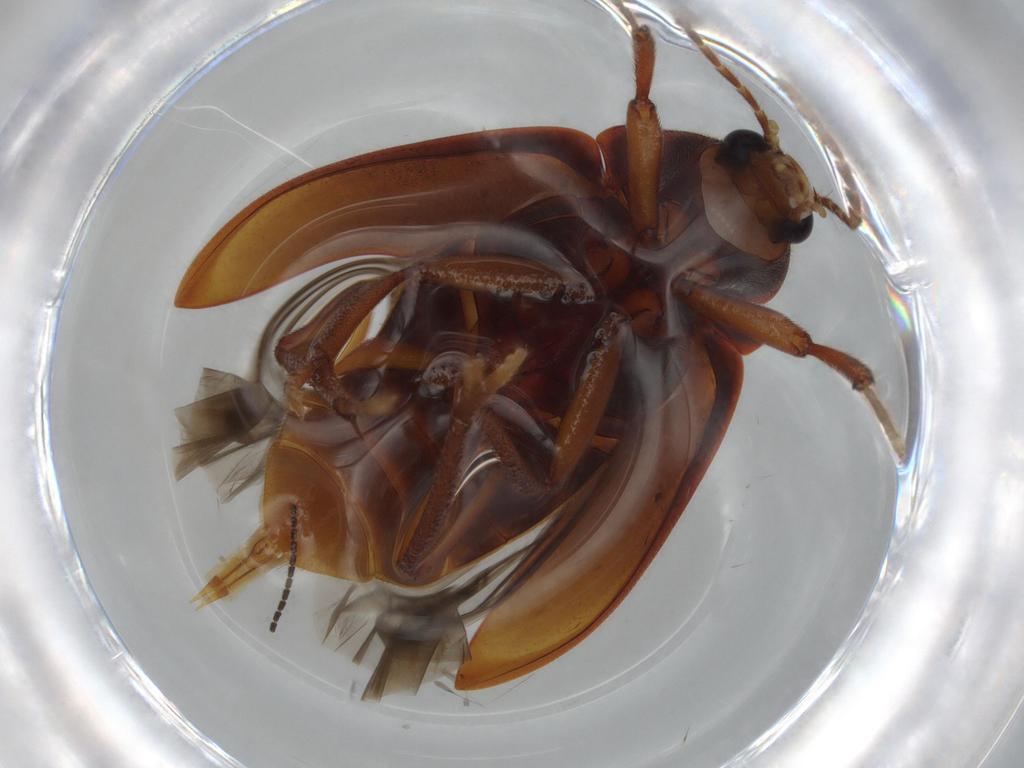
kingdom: Animalia
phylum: Arthropoda
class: Insecta
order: Coleoptera
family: Ptilodactylidae
